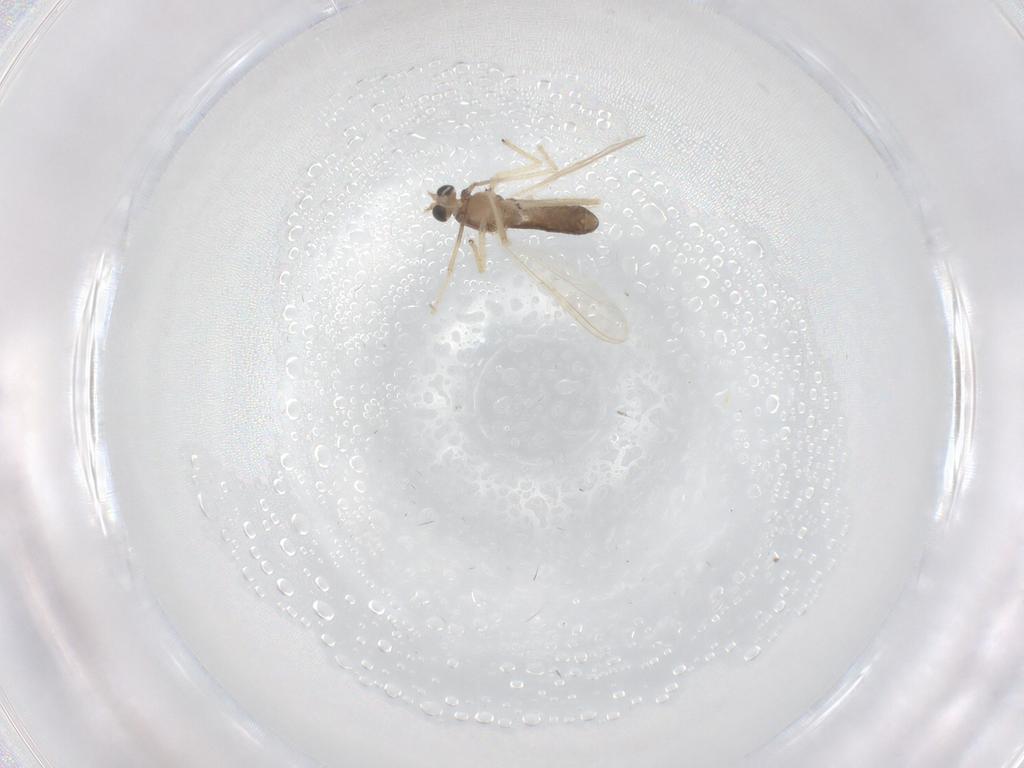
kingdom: Animalia
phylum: Arthropoda
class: Insecta
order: Diptera
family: Chironomidae
